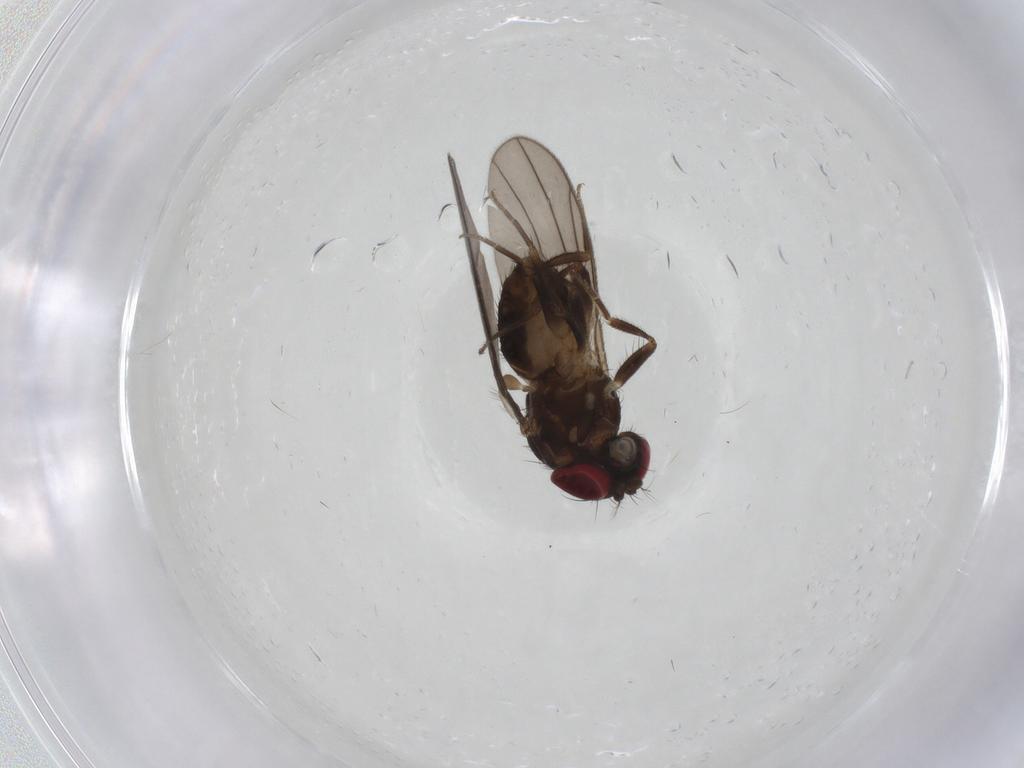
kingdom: Animalia
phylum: Arthropoda
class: Insecta
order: Diptera
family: Drosophilidae
